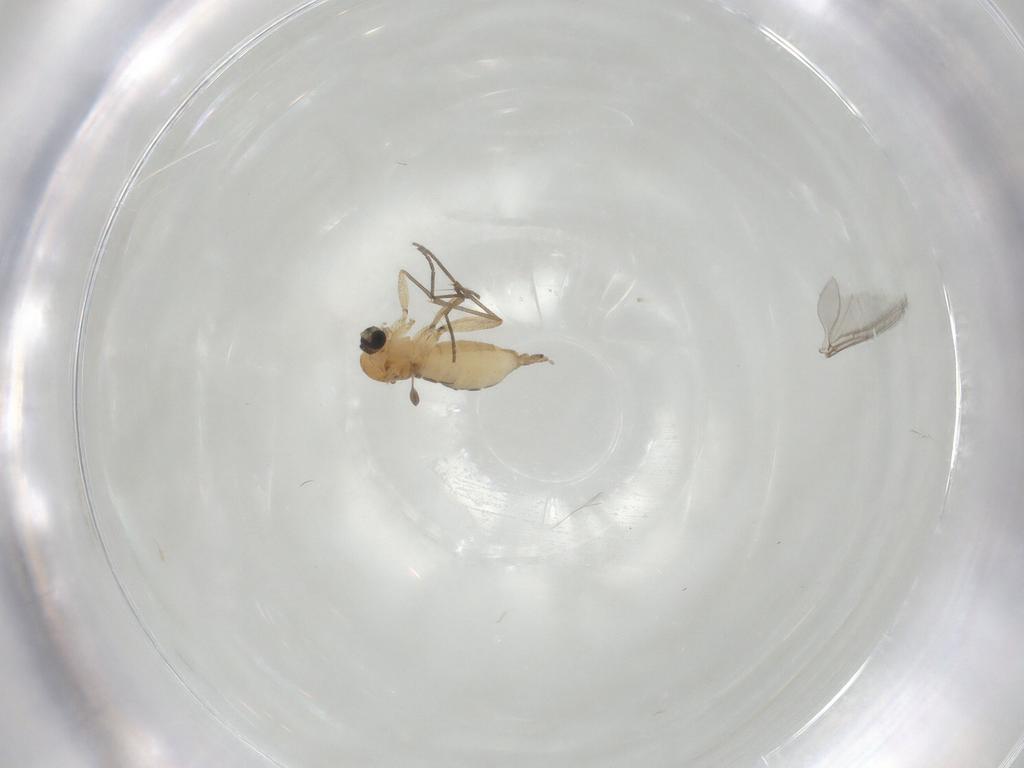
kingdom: Animalia
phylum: Arthropoda
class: Insecta
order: Diptera
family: Sciaridae
